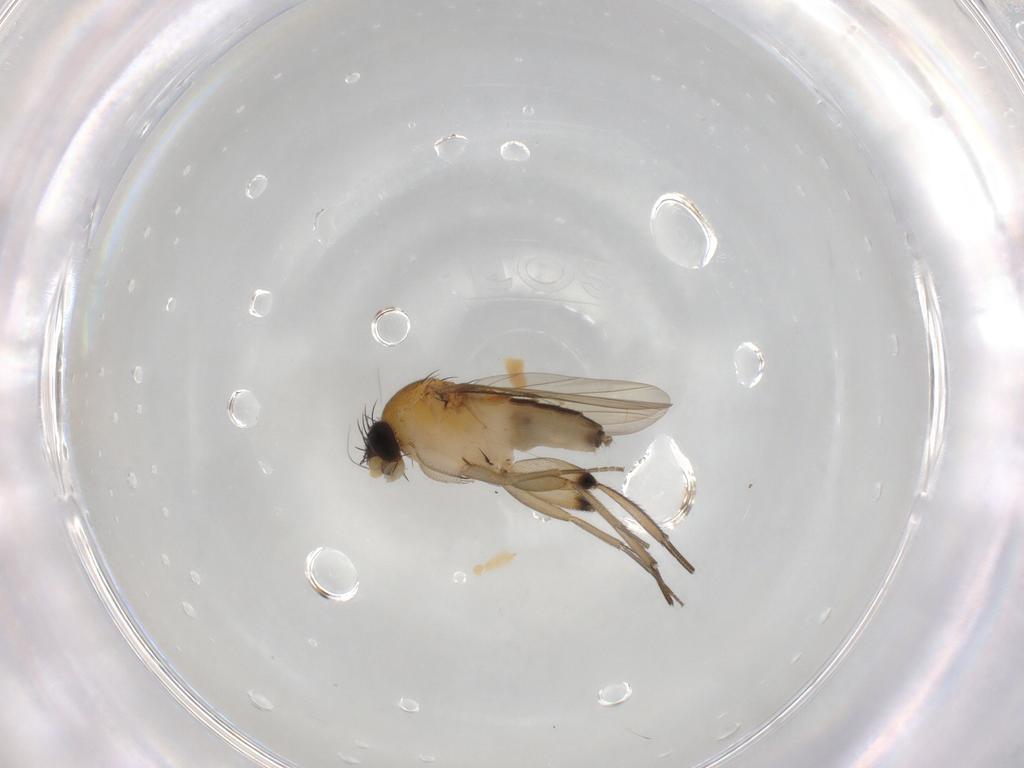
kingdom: Animalia
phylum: Arthropoda
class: Insecta
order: Diptera
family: Phoridae
